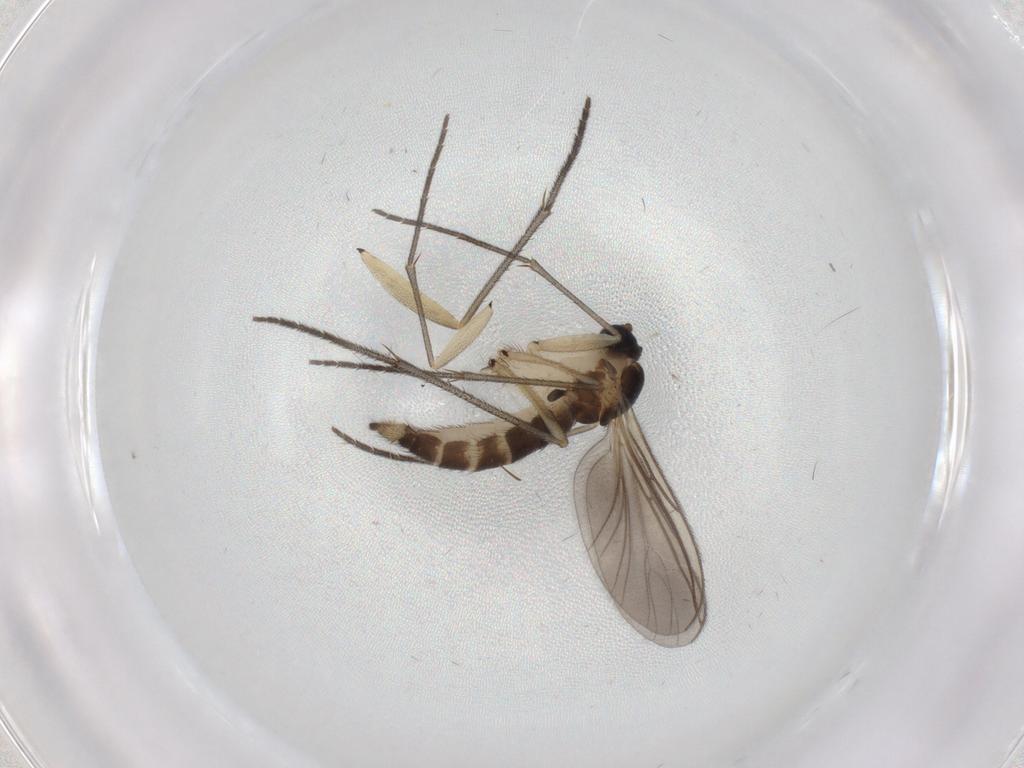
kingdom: Animalia
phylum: Arthropoda
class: Insecta
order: Diptera
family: Sciaridae
